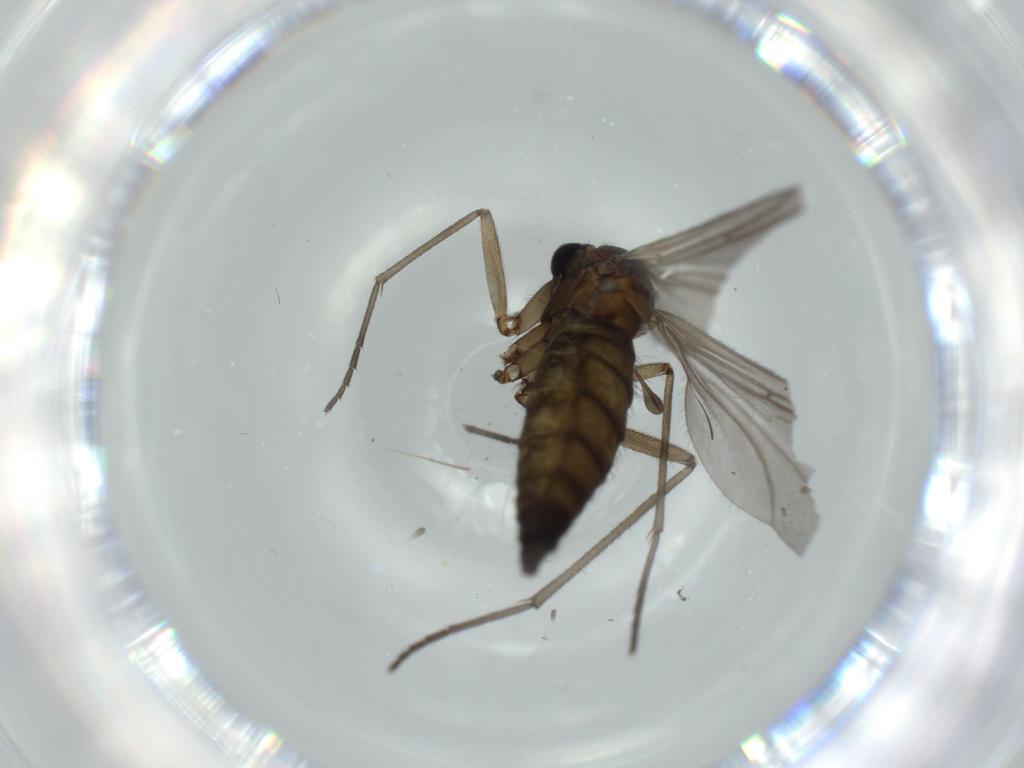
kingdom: Animalia
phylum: Arthropoda
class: Insecta
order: Diptera
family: Sciaridae
